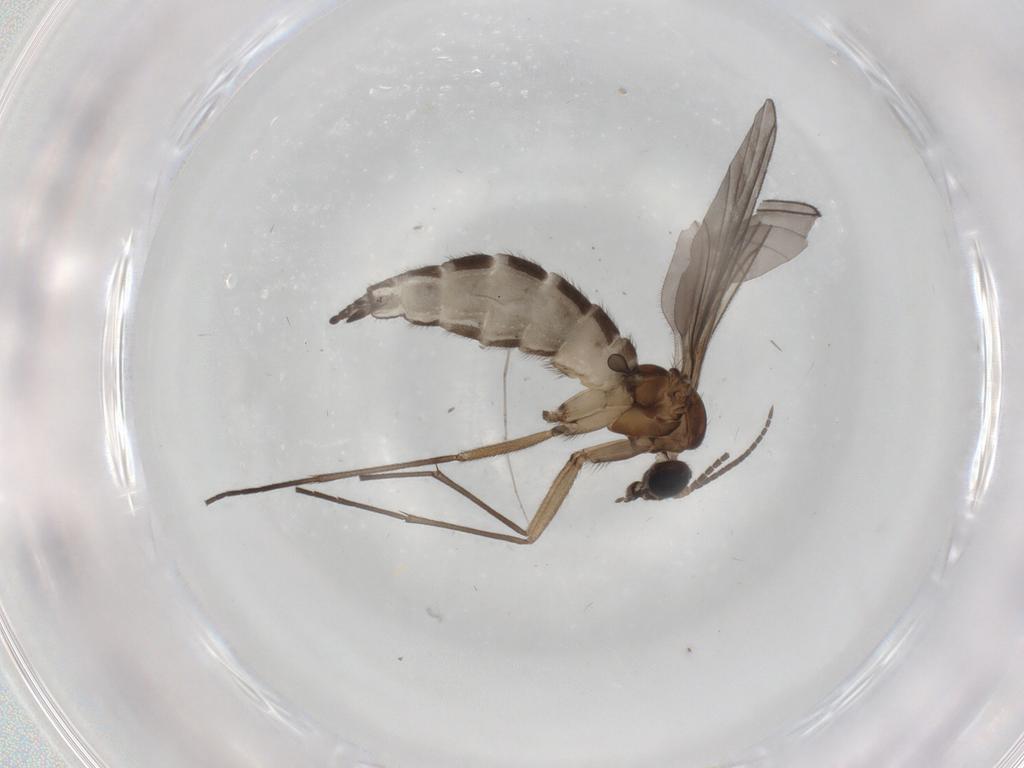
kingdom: Animalia
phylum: Arthropoda
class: Insecta
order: Diptera
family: Sciaridae
